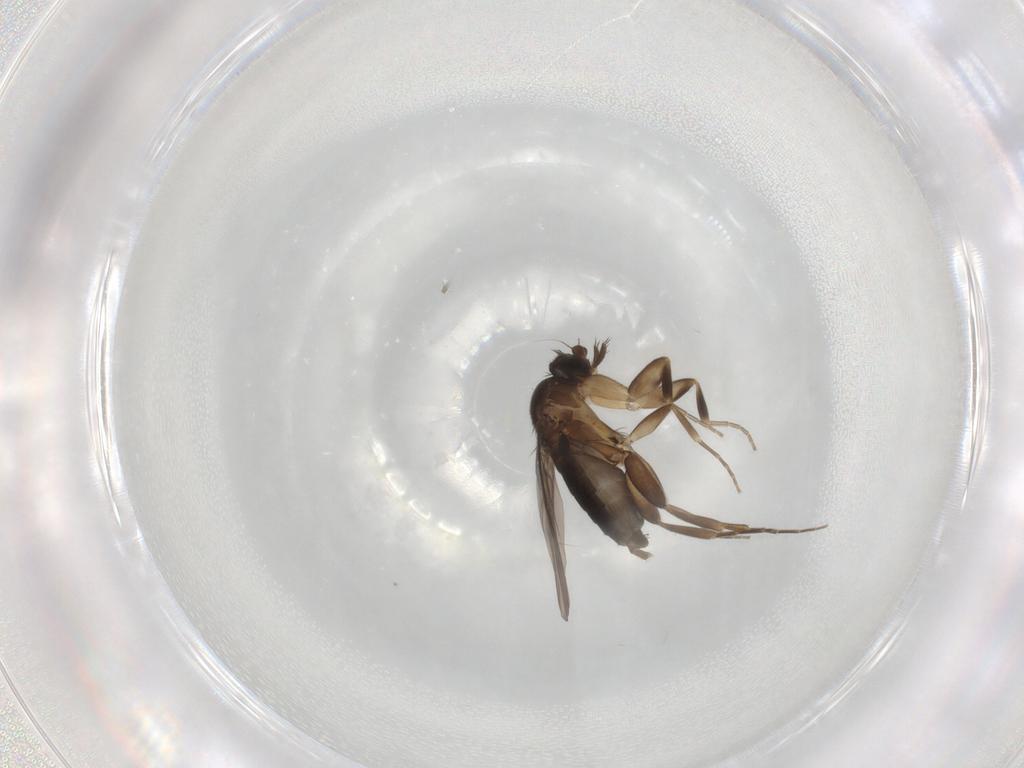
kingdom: Animalia
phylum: Arthropoda
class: Insecta
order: Diptera
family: Phoridae
